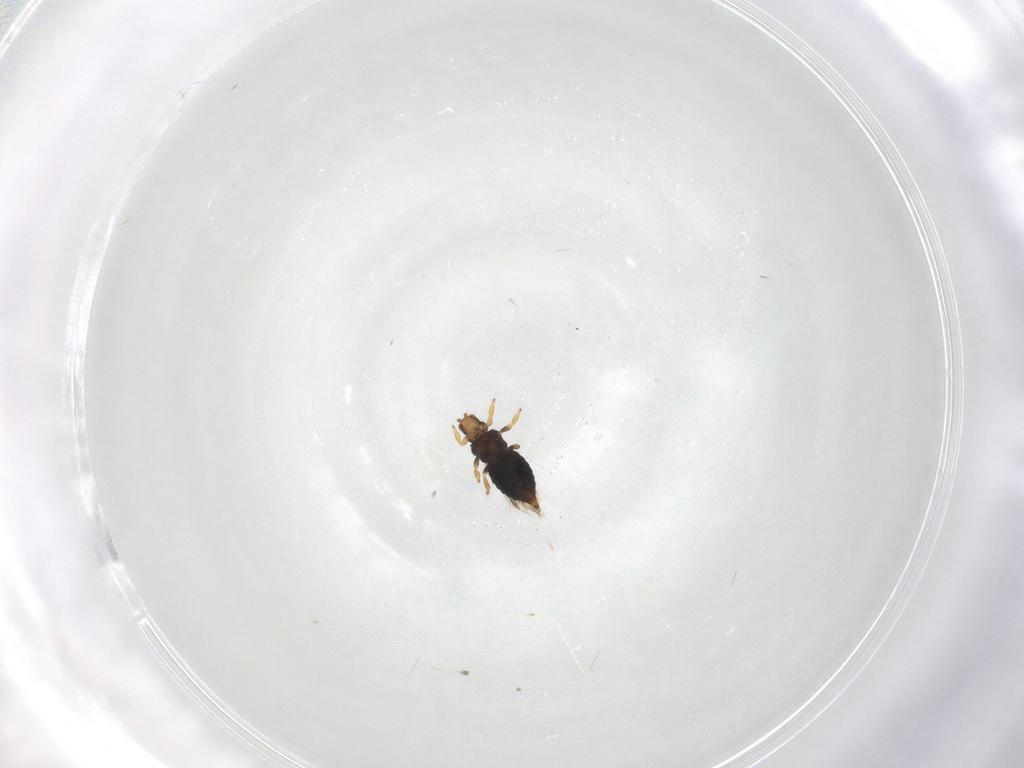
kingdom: Animalia
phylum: Arthropoda
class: Insecta
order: Thysanoptera
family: Thripidae
